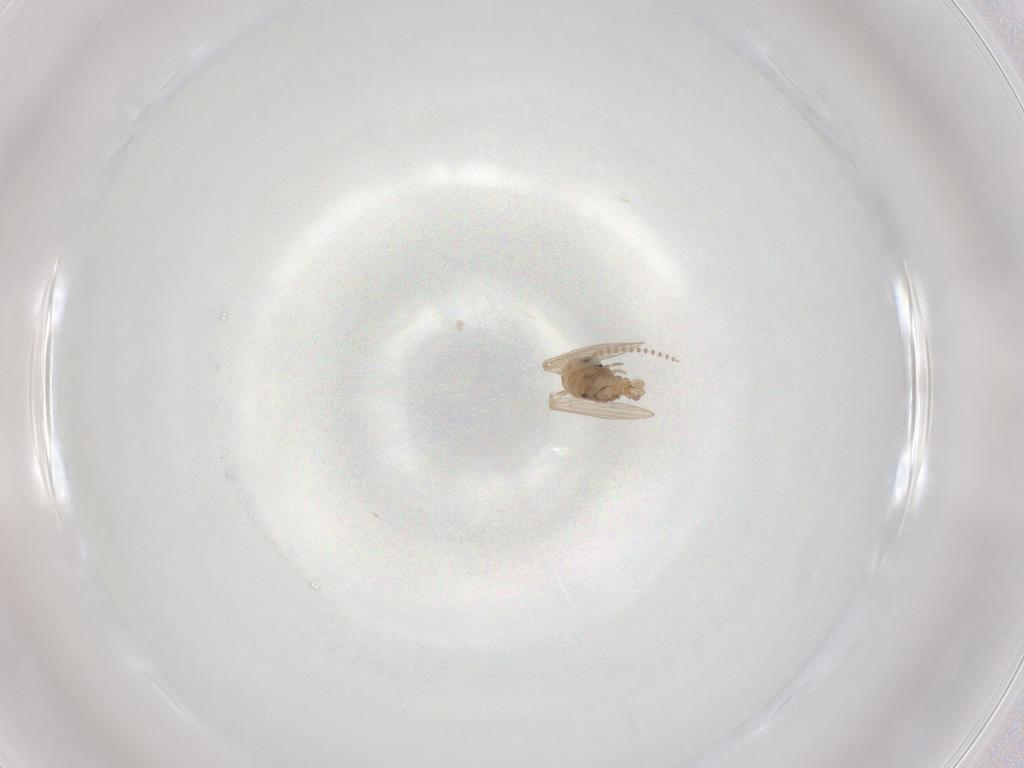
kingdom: Animalia
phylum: Arthropoda
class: Insecta
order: Diptera
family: Psychodidae
